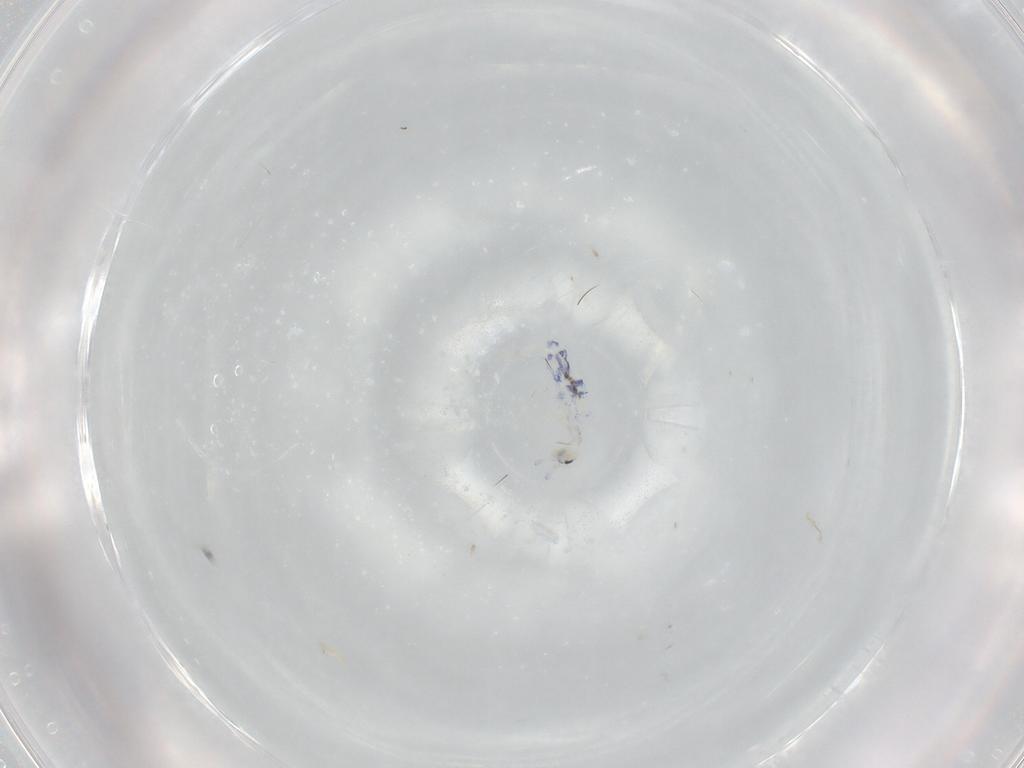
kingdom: Animalia
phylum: Arthropoda
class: Collembola
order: Entomobryomorpha
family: Entomobryidae
